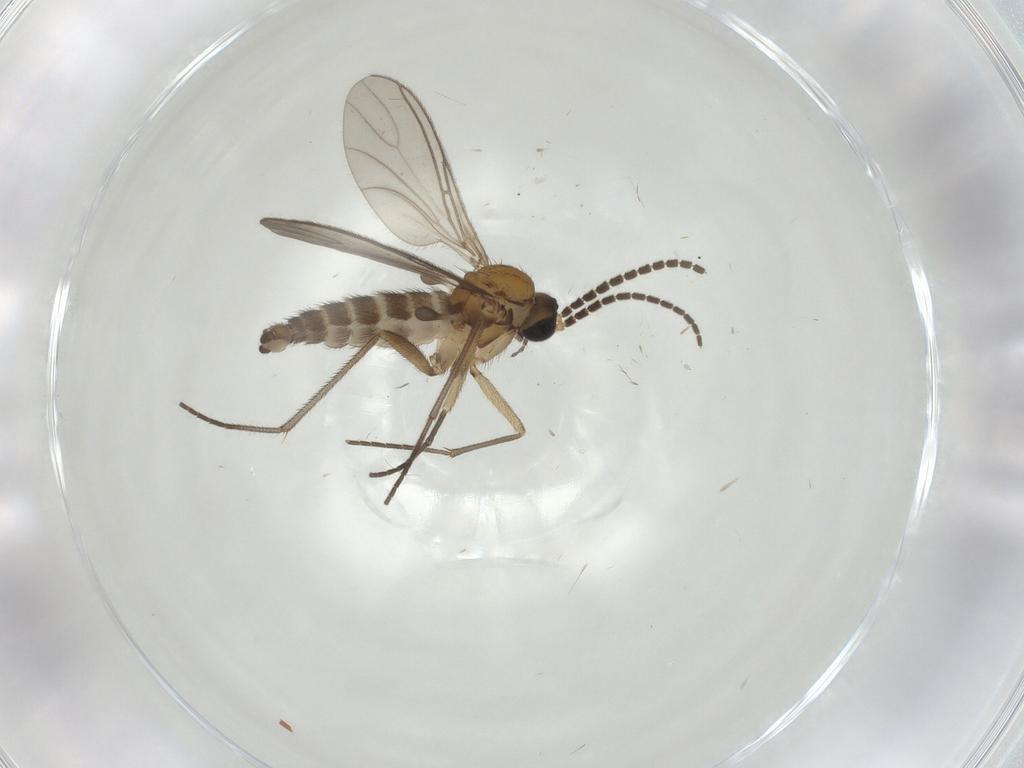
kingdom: Animalia
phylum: Arthropoda
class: Insecta
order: Diptera
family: Sciaridae
